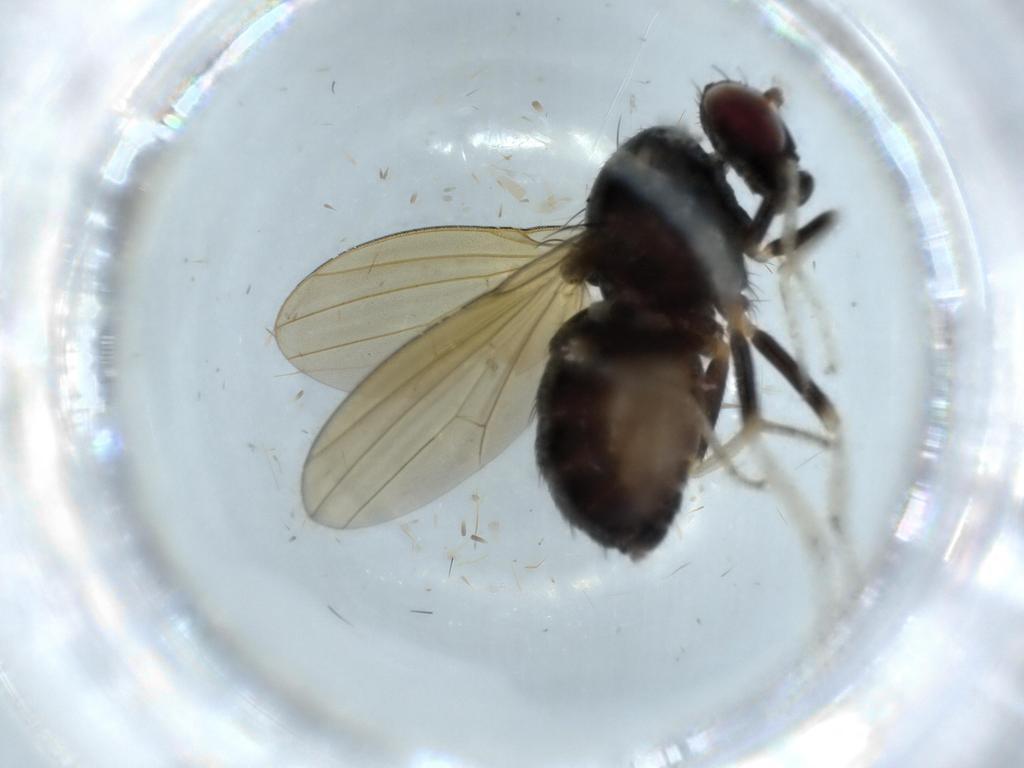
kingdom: Animalia
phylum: Arthropoda
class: Insecta
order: Diptera
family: Sciaridae
